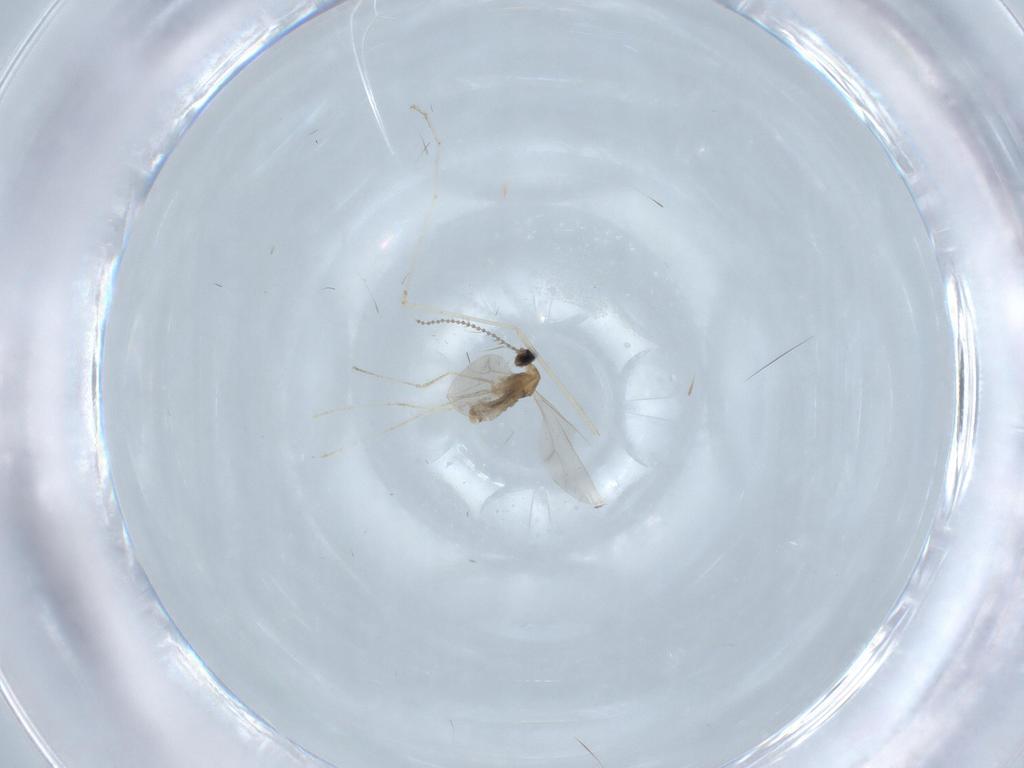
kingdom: Animalia
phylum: Arthropoda
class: Insecta
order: Diptera
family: Cecidomyiidae
